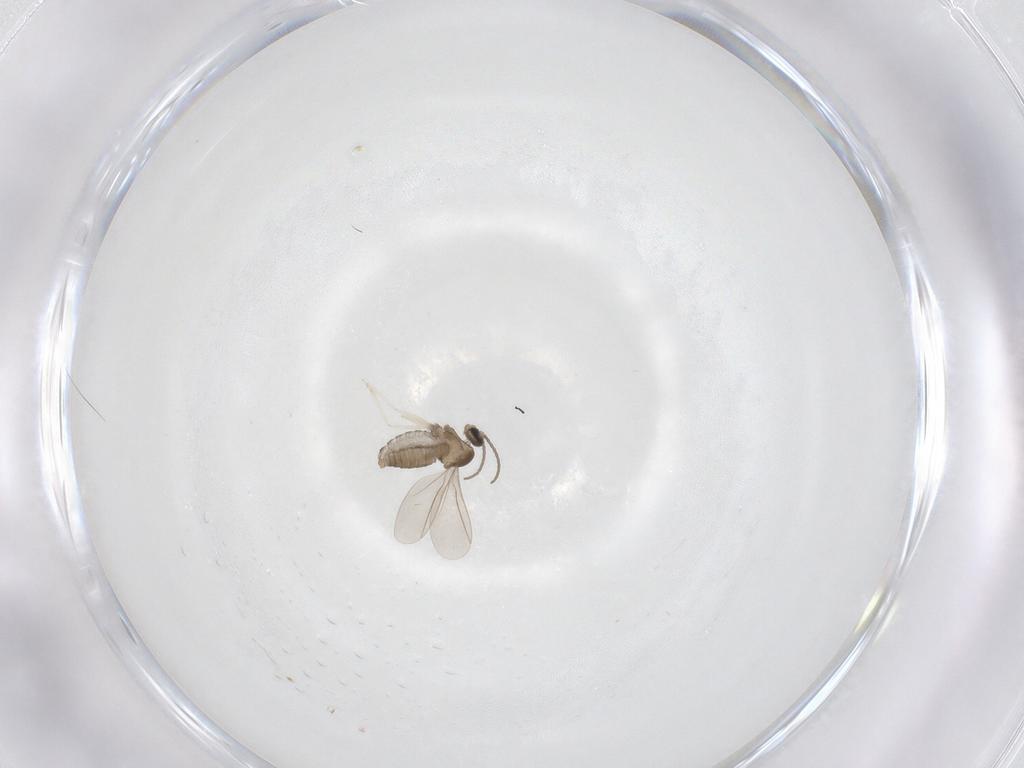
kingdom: Animalia
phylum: Arthropoda
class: Insecta
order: Diptera
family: Cecidomyiidae
